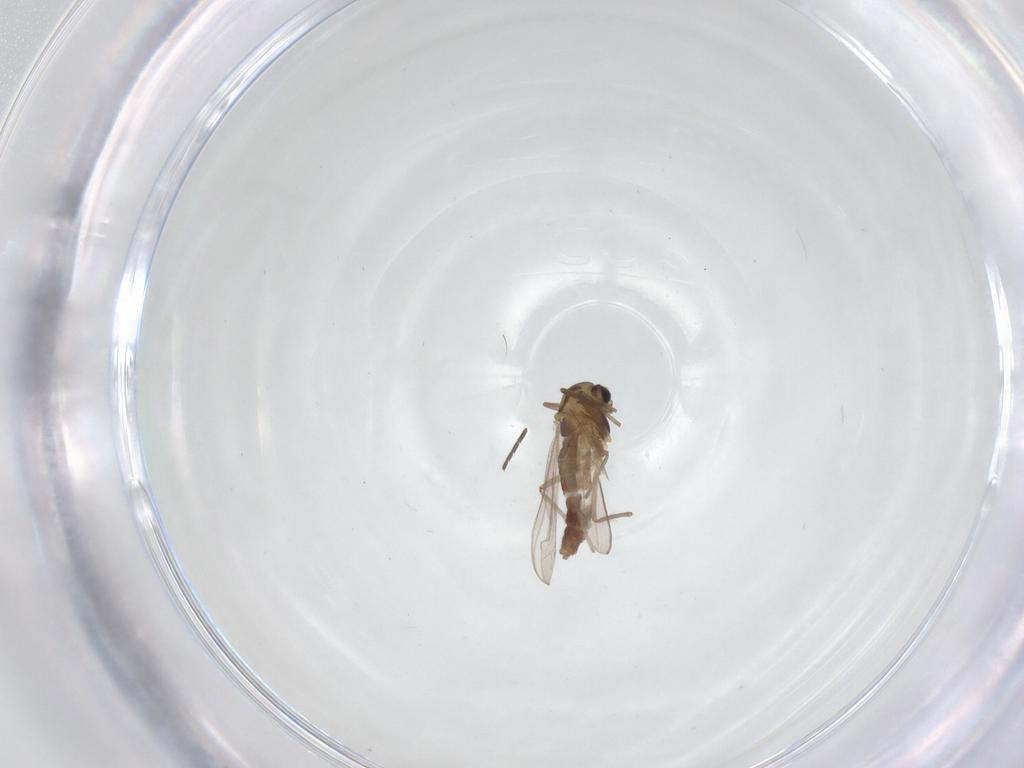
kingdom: Animalia
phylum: Arthropoda
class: Insecta
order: Diptera
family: Chironomidae
